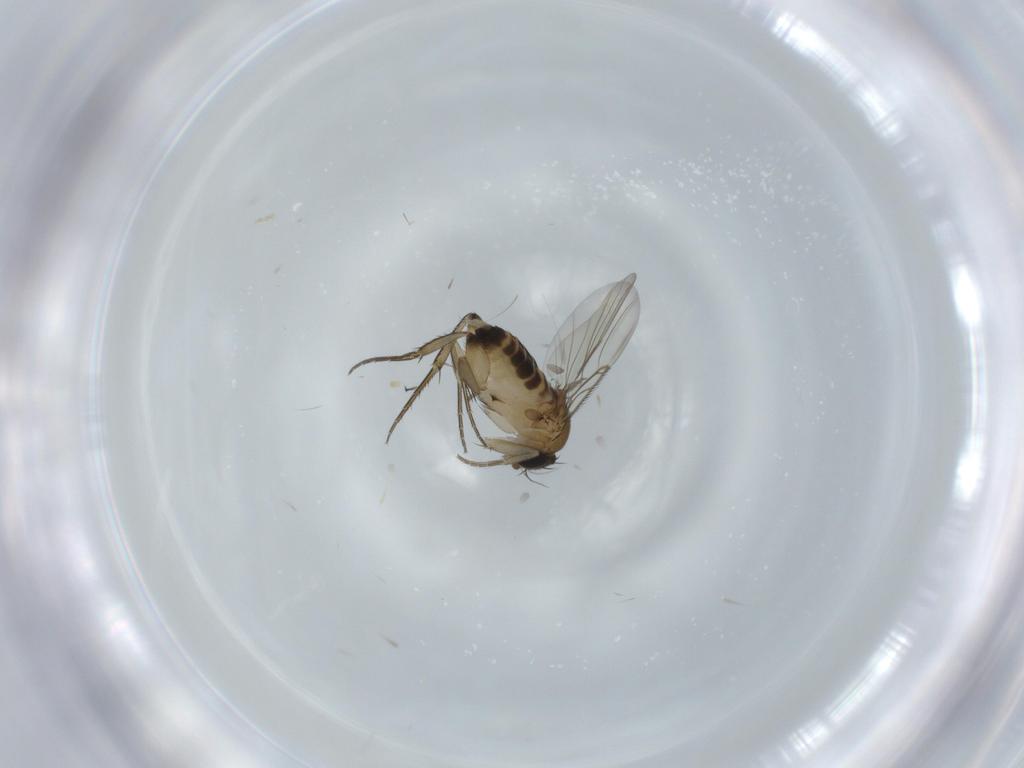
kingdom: Animalia
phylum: Arthropoda
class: Insecta
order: Diptera
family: Phoridae
